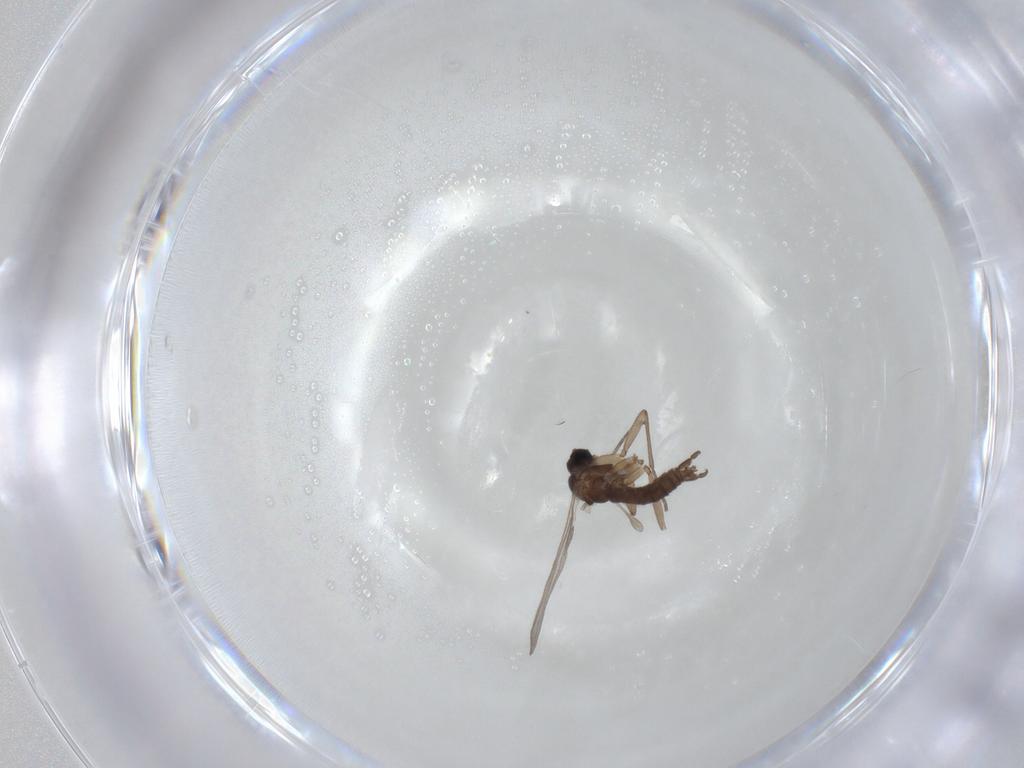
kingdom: Animalia
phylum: Arthropoda
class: Insecta
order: Diptera
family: Sciaridae
